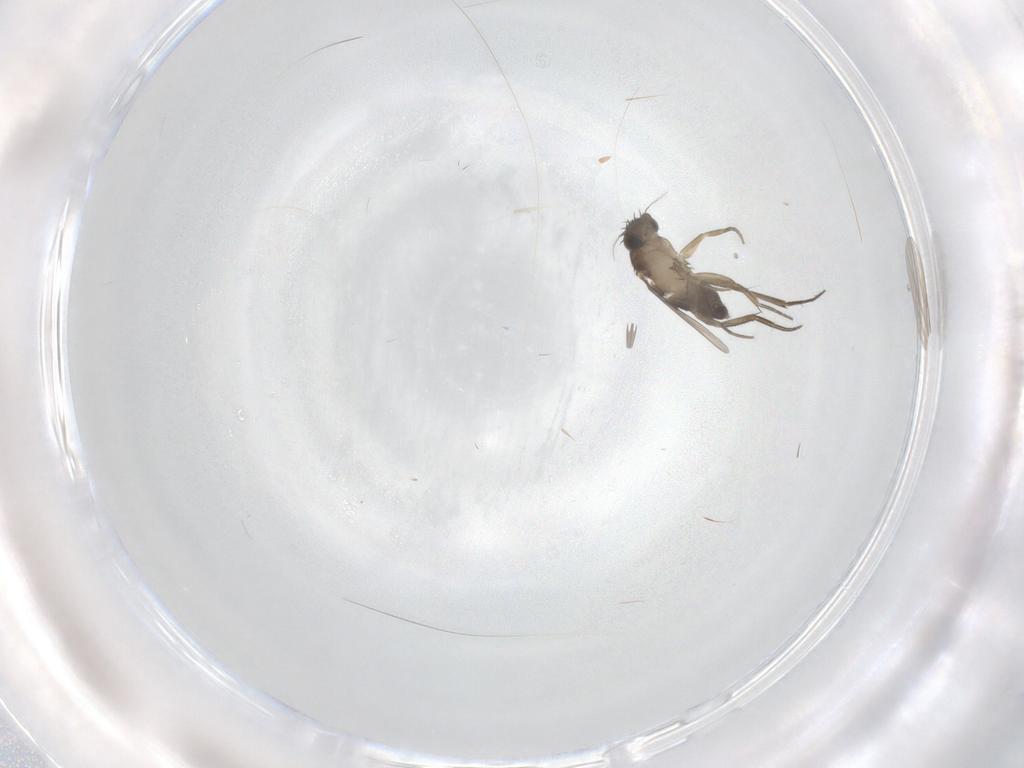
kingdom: Animalia
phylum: Arthropoda
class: Insecta
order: Diptera
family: Phoridae
